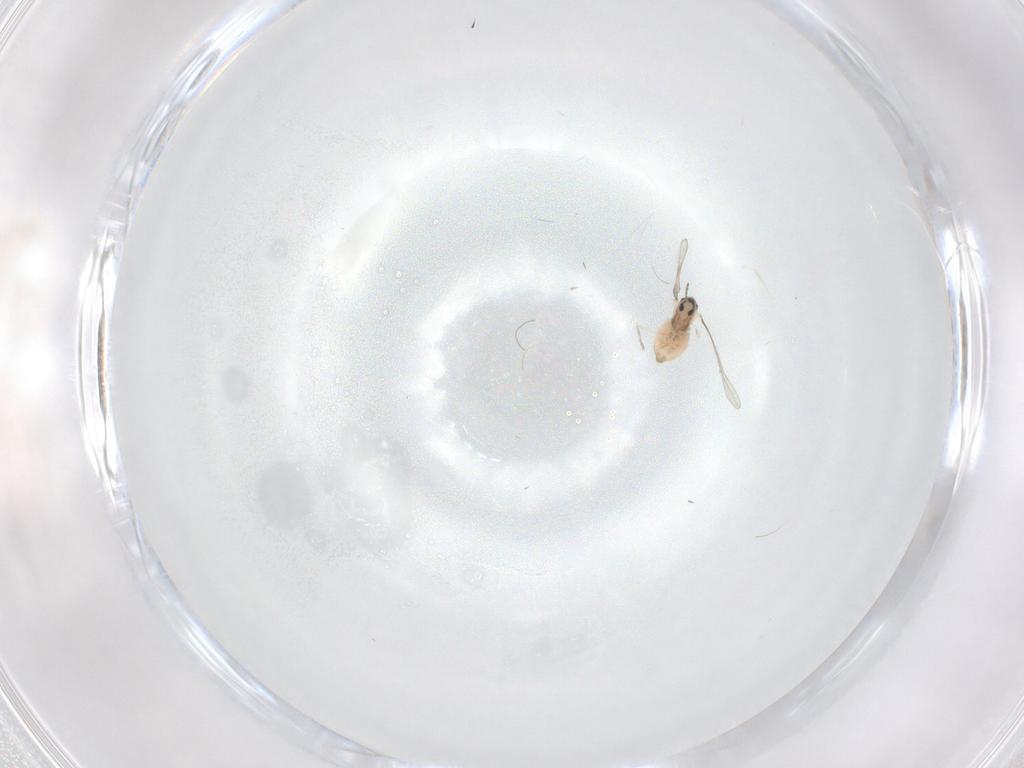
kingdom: Animalia
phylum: Arthropoda
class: Insecta
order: Diptera
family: Cecidomyiidae
